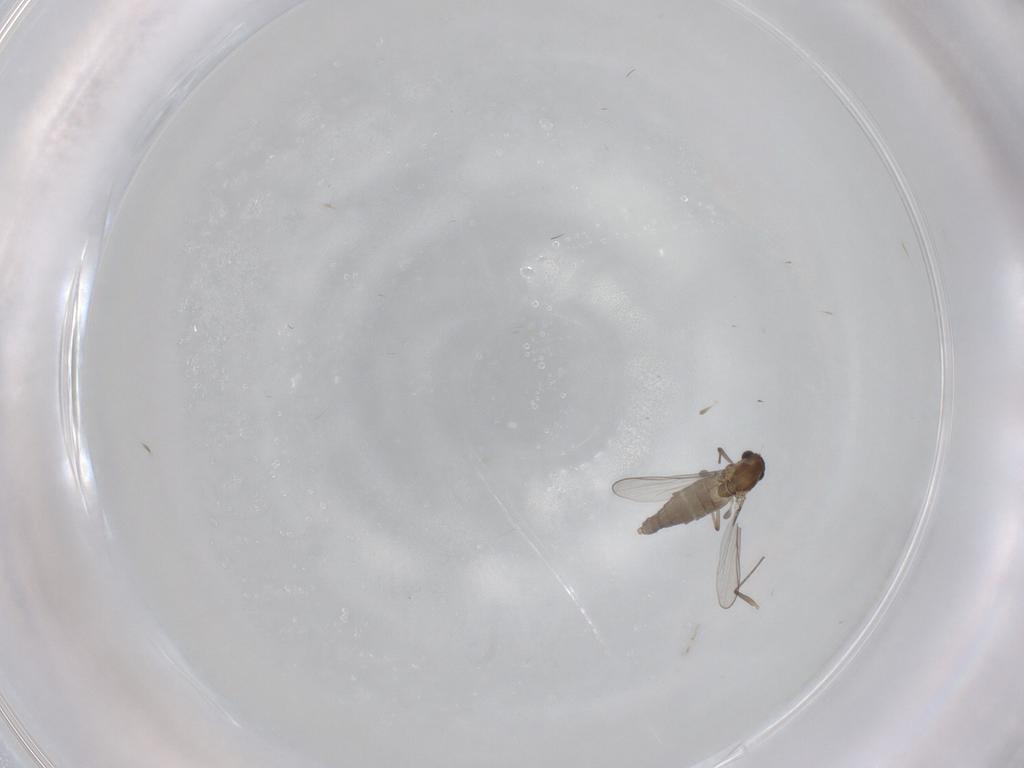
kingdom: Animalia
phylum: Arthropoda
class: Insecta
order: Diptera
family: Chironomidae
